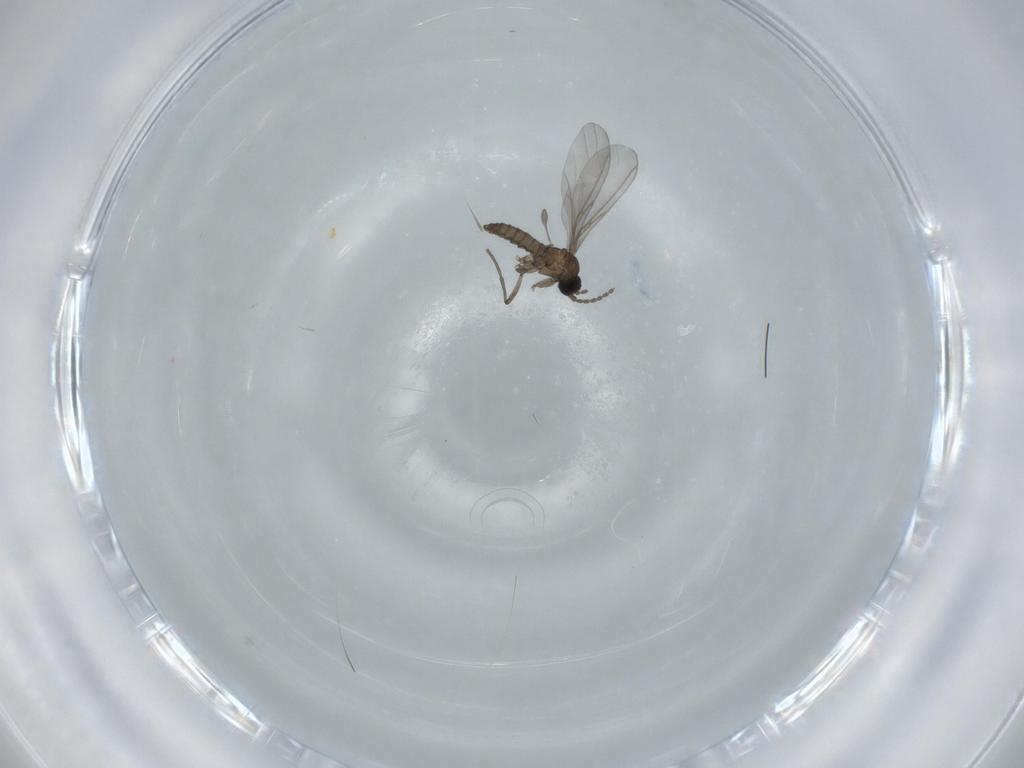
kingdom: Animalia
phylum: Arthropoda
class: Insecta
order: Diptera
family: Sciaridae
